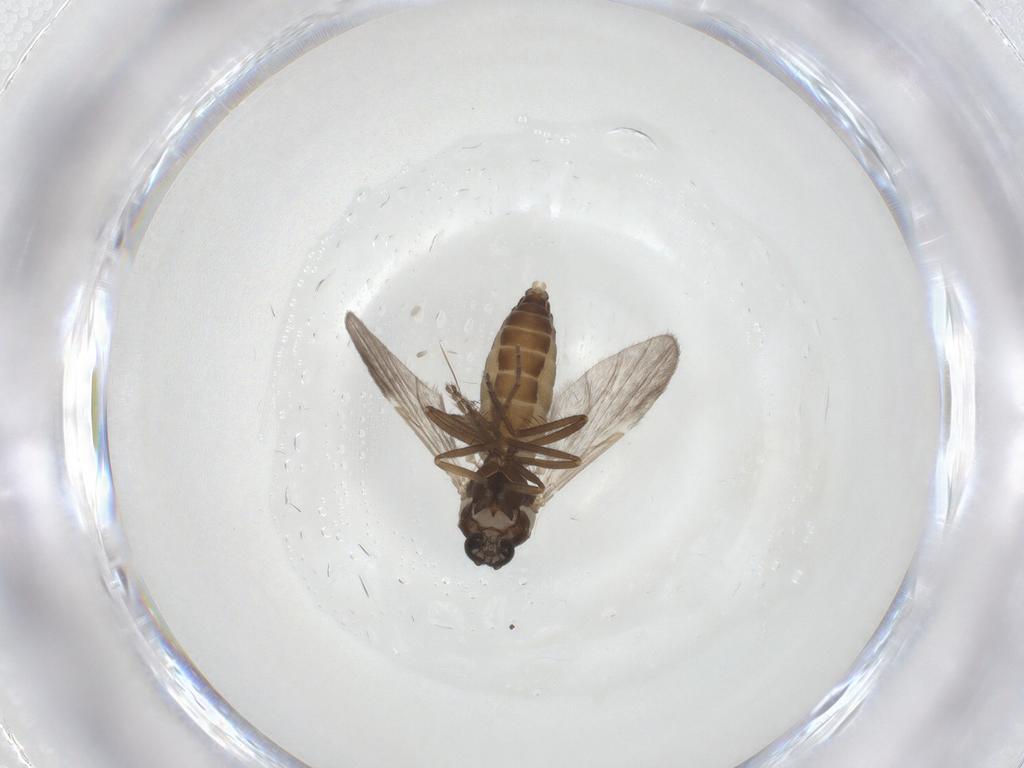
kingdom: Animalia
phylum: Arthropoda
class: Insecta
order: Diptera
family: Ceratopogonidae
